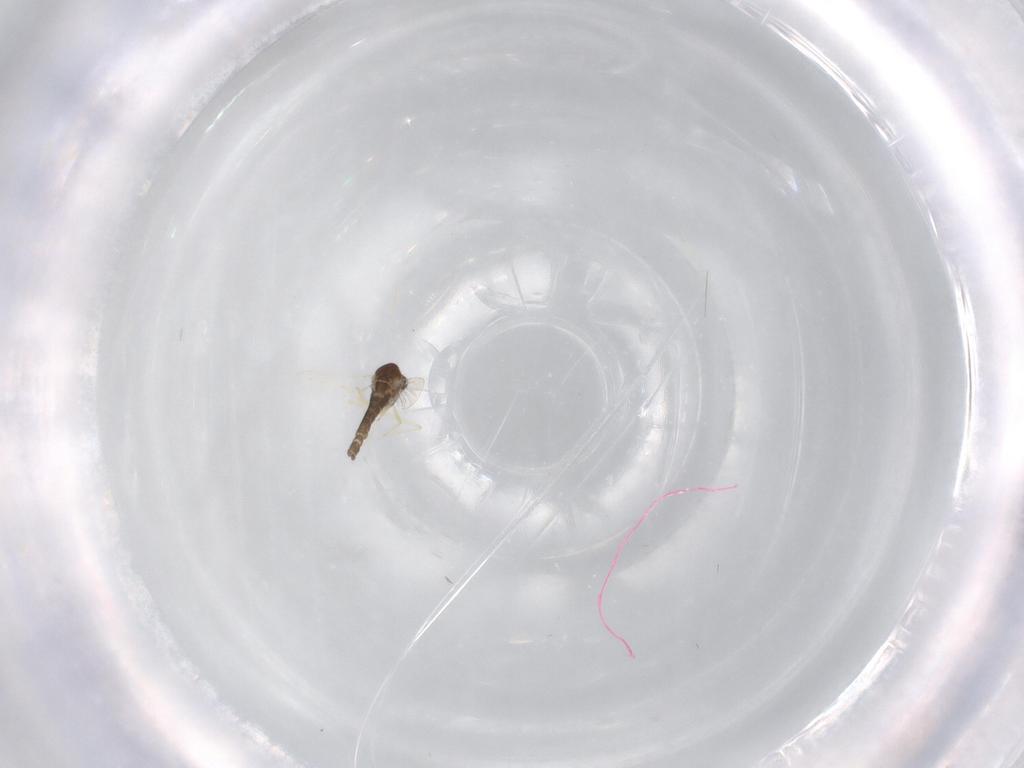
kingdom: Animalia
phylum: Arthropoda
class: Insecta
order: Diptera
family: Chironomidae
